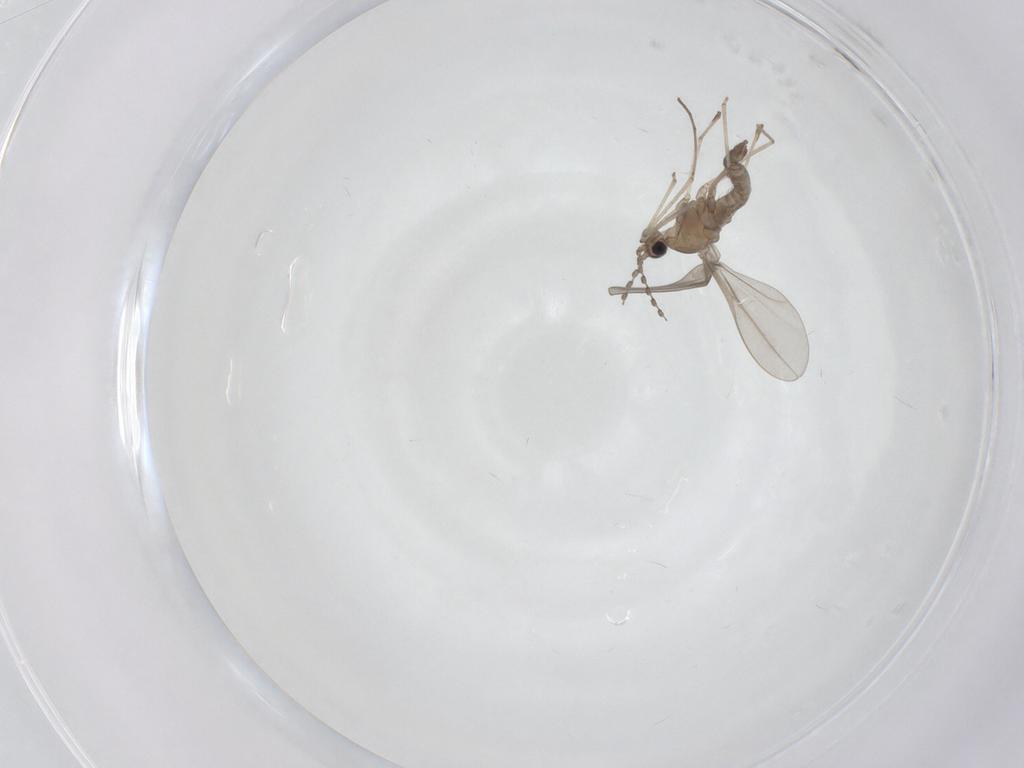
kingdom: Animalia
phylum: Arthropoda
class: Insecta
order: Diptera
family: Cecidomyiidae
